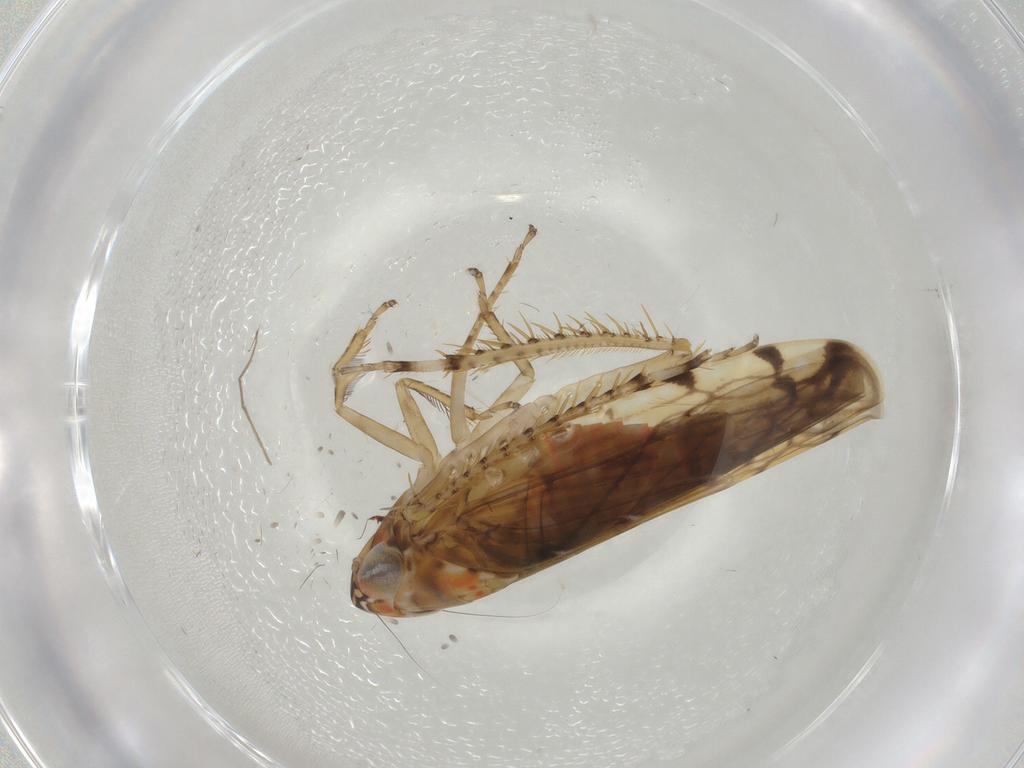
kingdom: Animalia
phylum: Arthropoda
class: Insecta
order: Hemiptera
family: Cicadellidae
